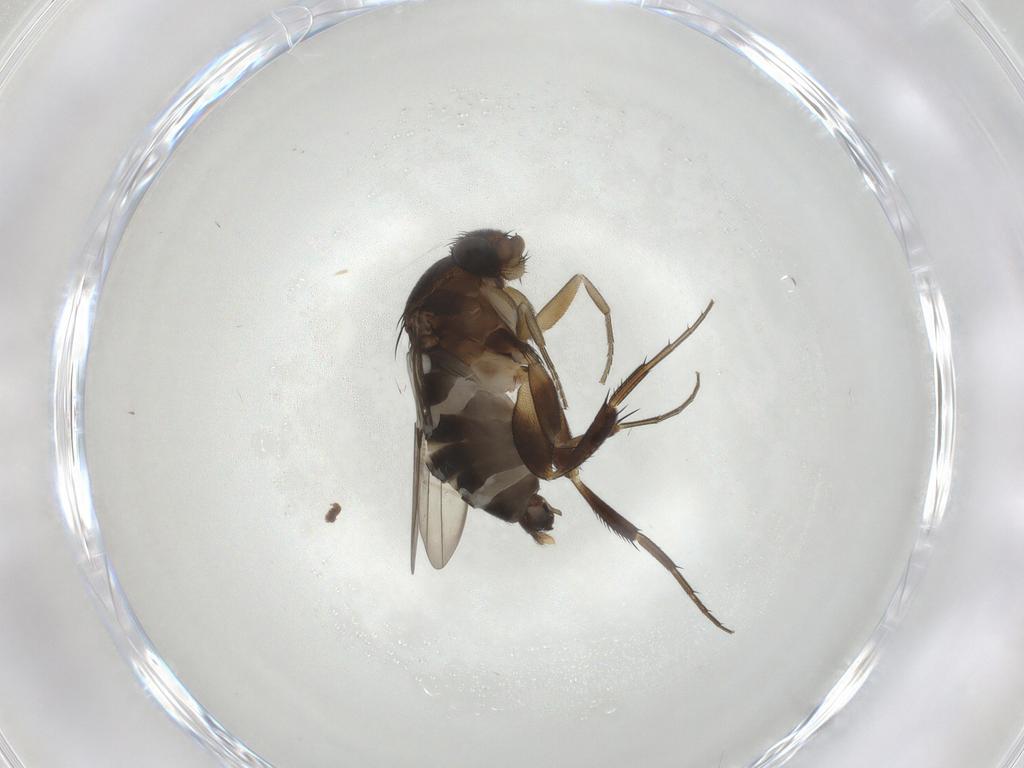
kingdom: Animalia
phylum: Arthropoda
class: Insecta
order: Diptera
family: Phoridae
